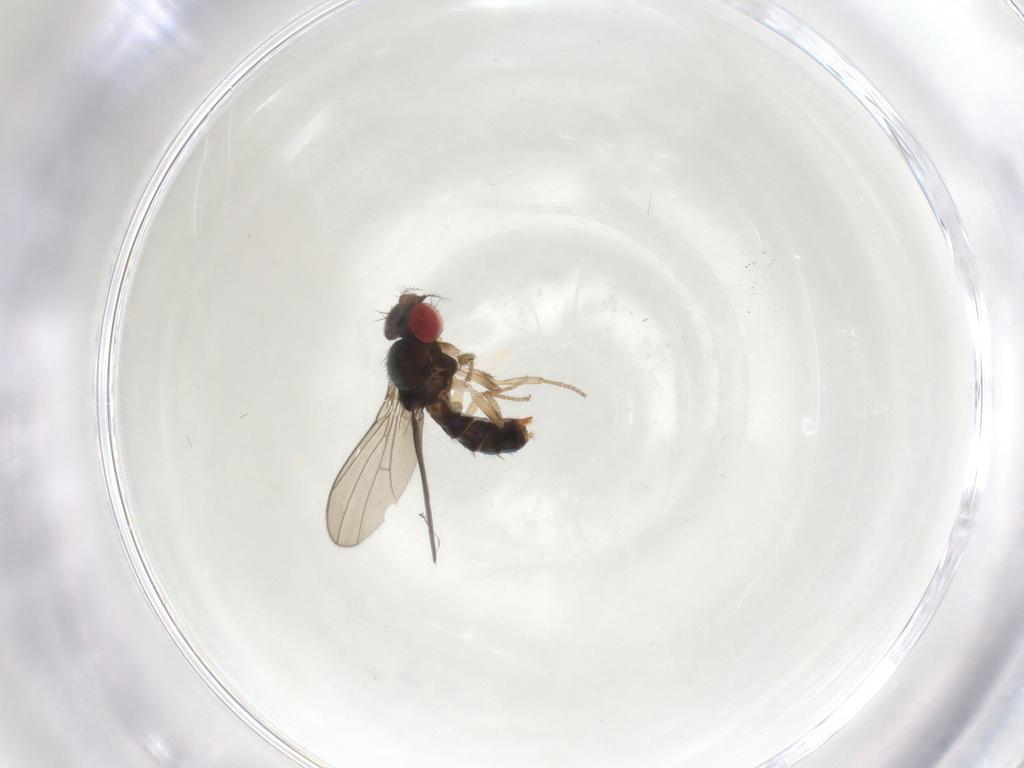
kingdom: Animalia
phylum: Arthropoda
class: Insecta
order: Diptera
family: Drosophilidae
